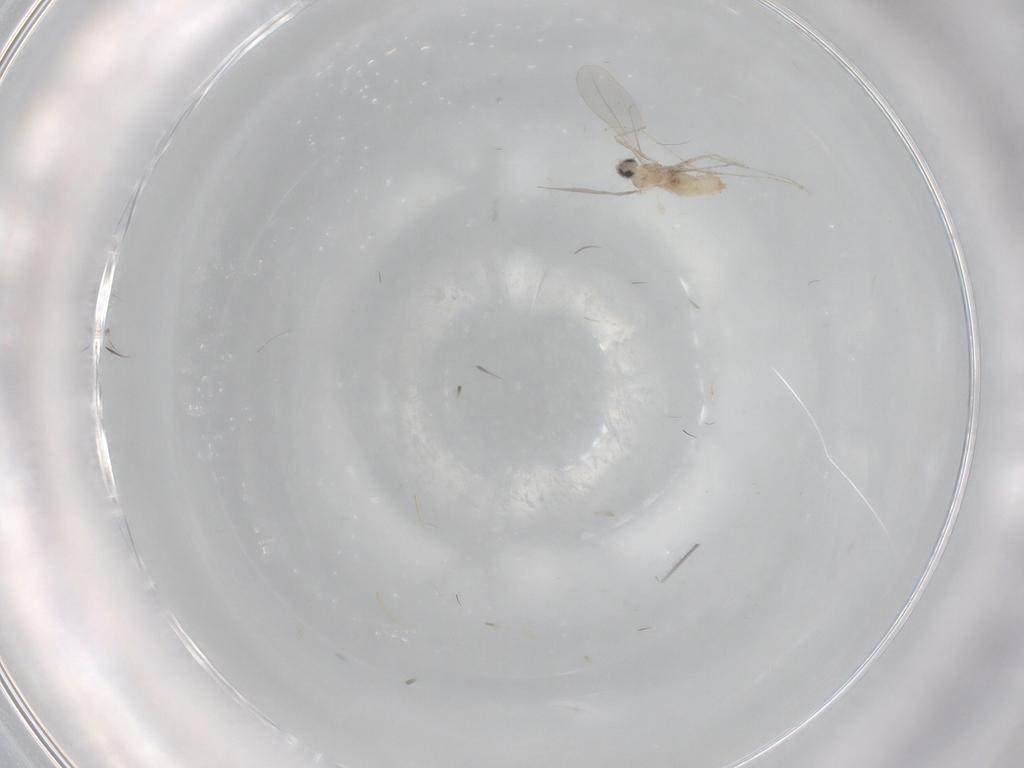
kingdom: Animalia
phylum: Arthropoda
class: Insecta
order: Diptera
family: Cecidomyiidae
